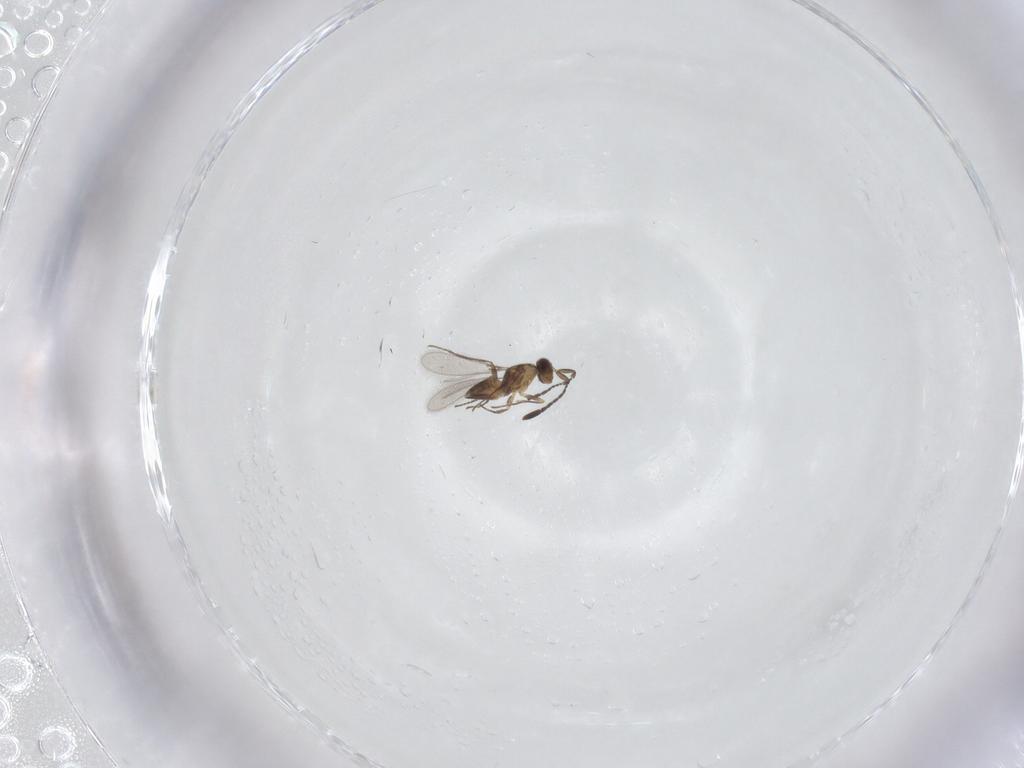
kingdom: Animalia
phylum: Arthropoda
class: Insecta
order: Hymenoptera
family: Mymaridae
